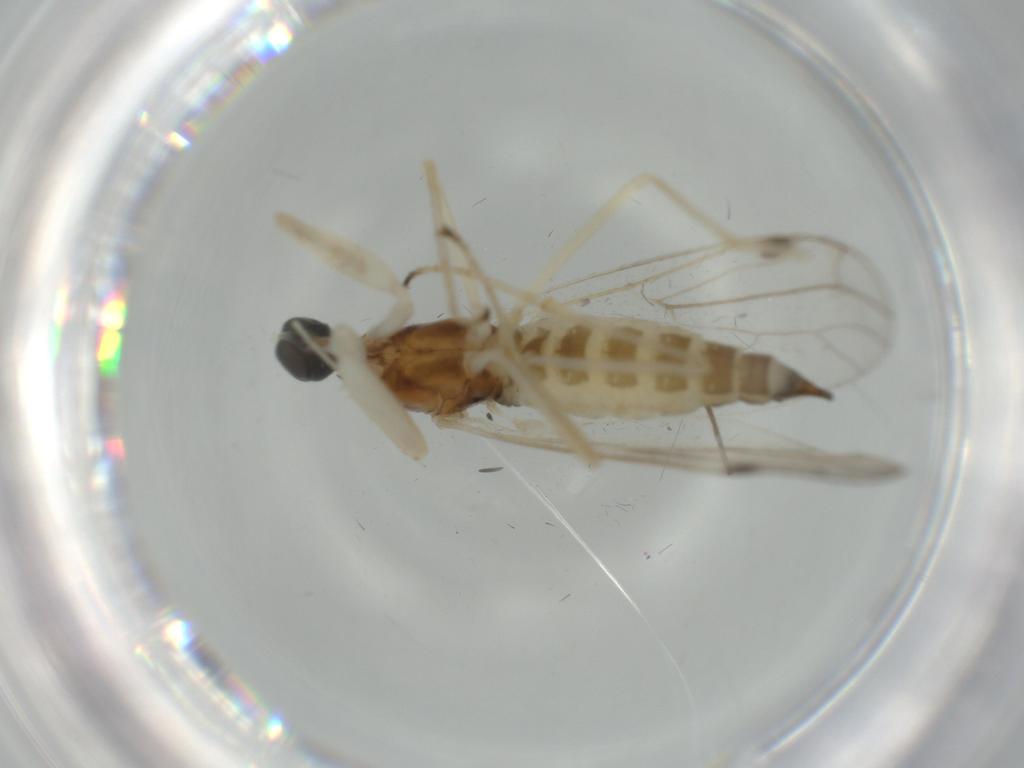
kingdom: Animalia
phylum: Arthropoda
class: Insecta
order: Diptera
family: Empididae
